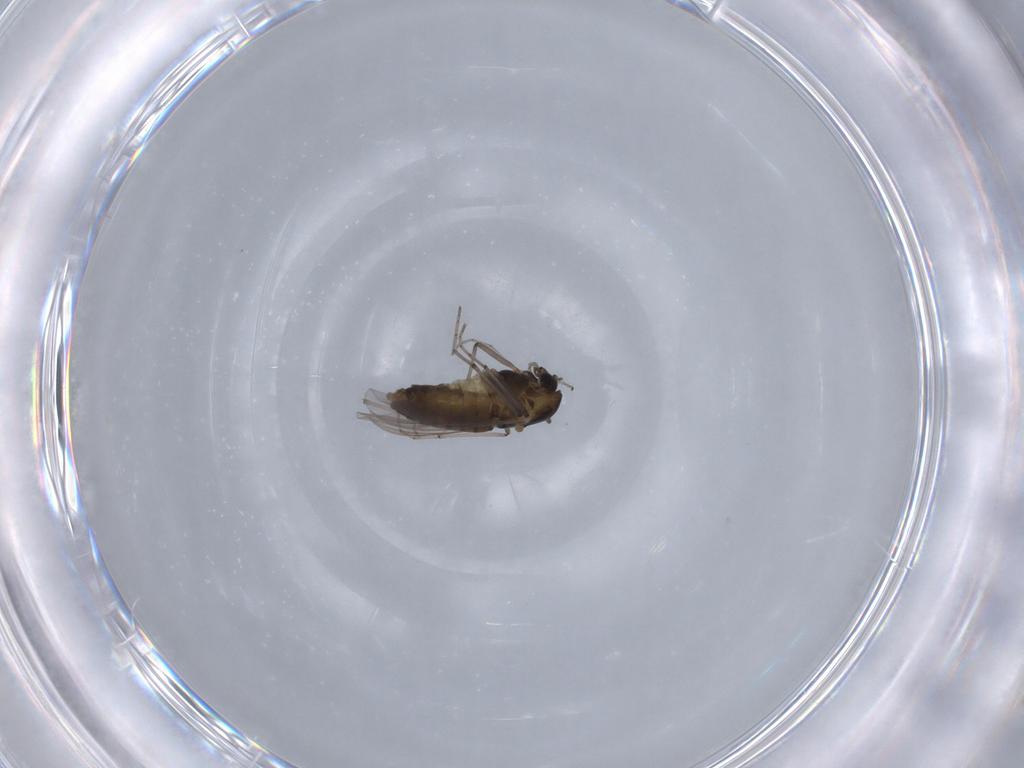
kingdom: Animalia
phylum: Arthropoda
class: Insecta
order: Diptera
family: Chironomidae
